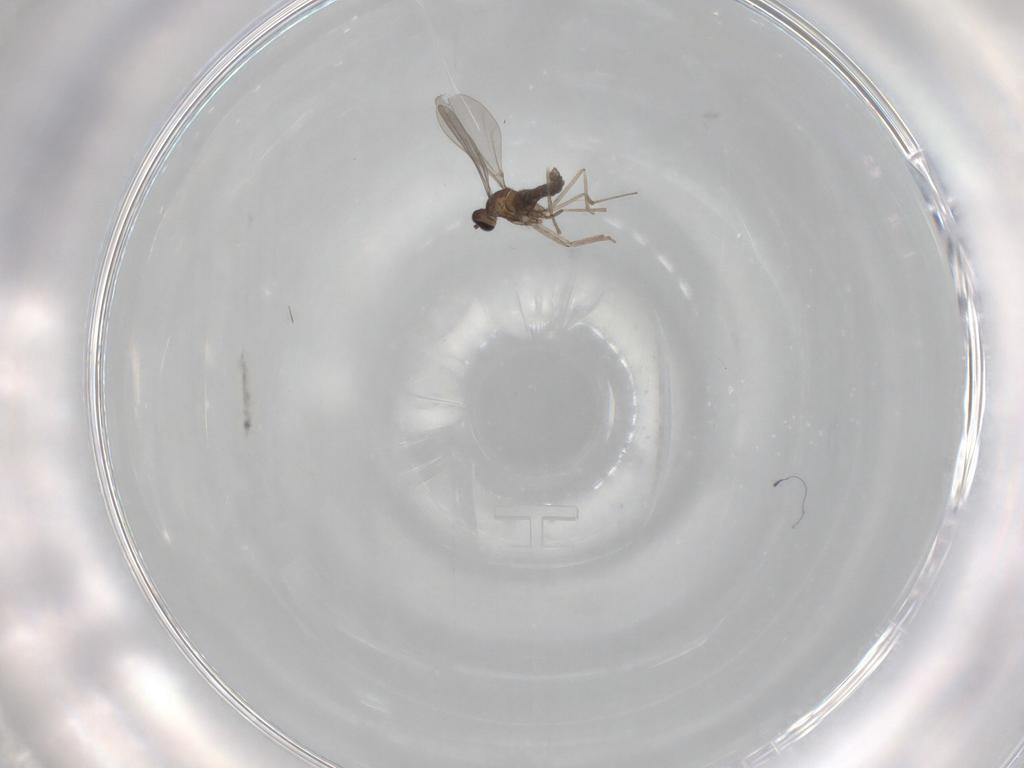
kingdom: Animalia
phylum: Arthropoda
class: Insecta
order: Diptera
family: Cecidomyiidae
